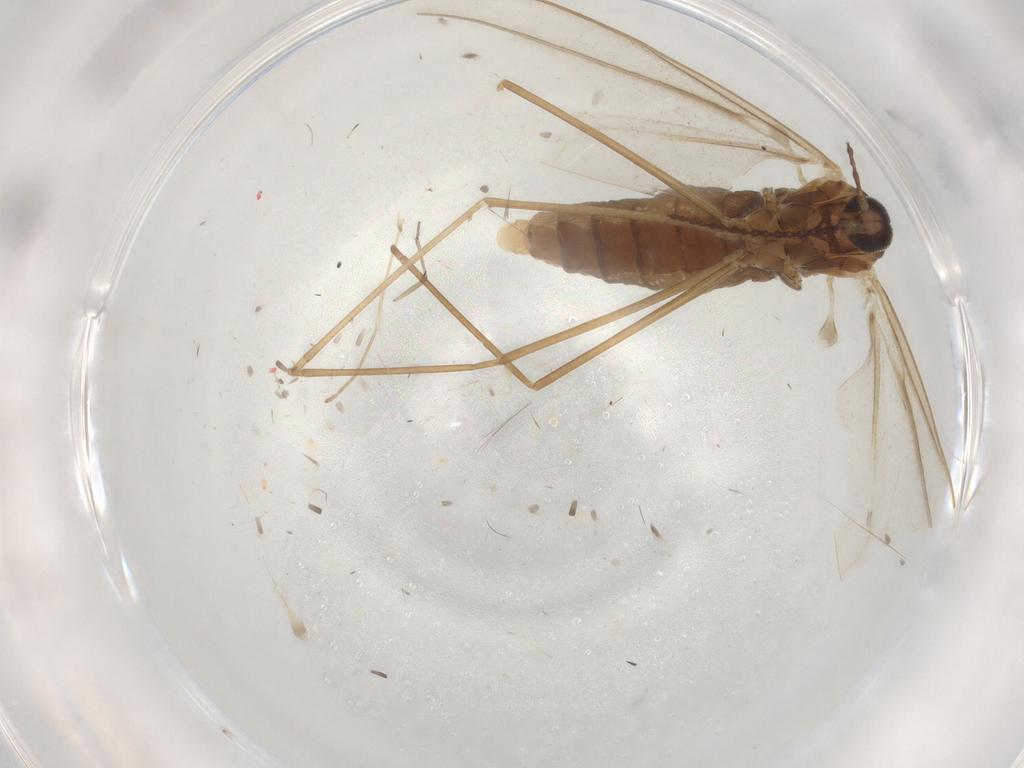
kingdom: Animalia
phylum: Arthropoda
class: Insecta
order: Diptera
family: Cecidomyiidae
